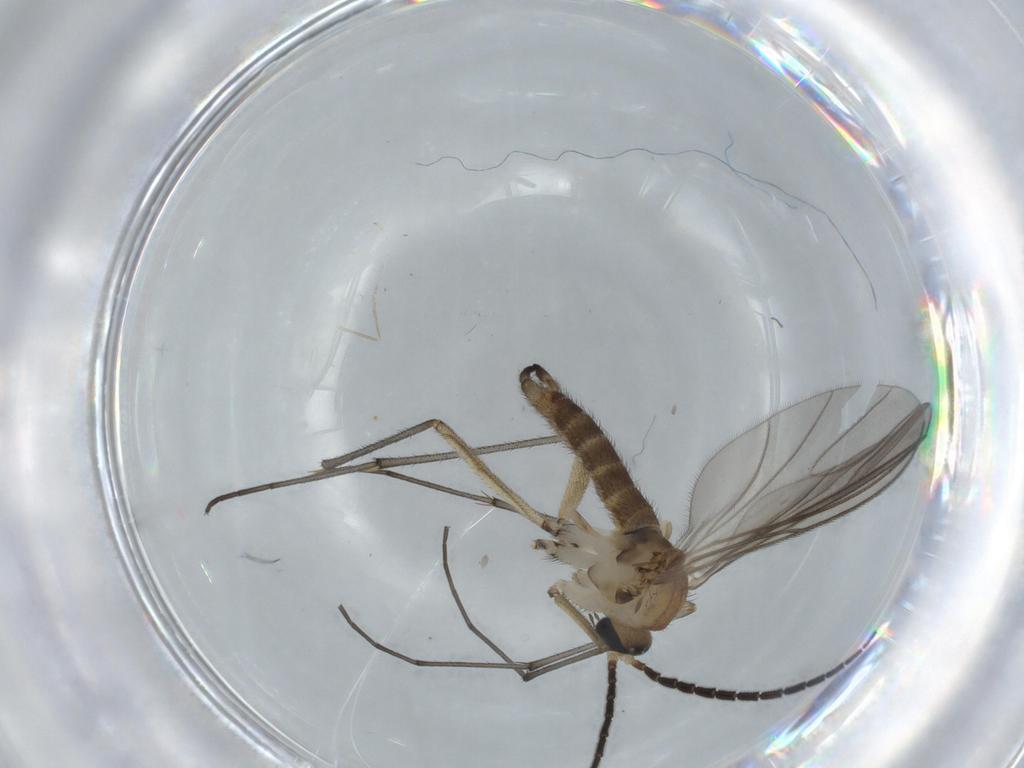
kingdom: Animalia
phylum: Arthropoda
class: Insecta
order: Diptera
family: Sciaridae
